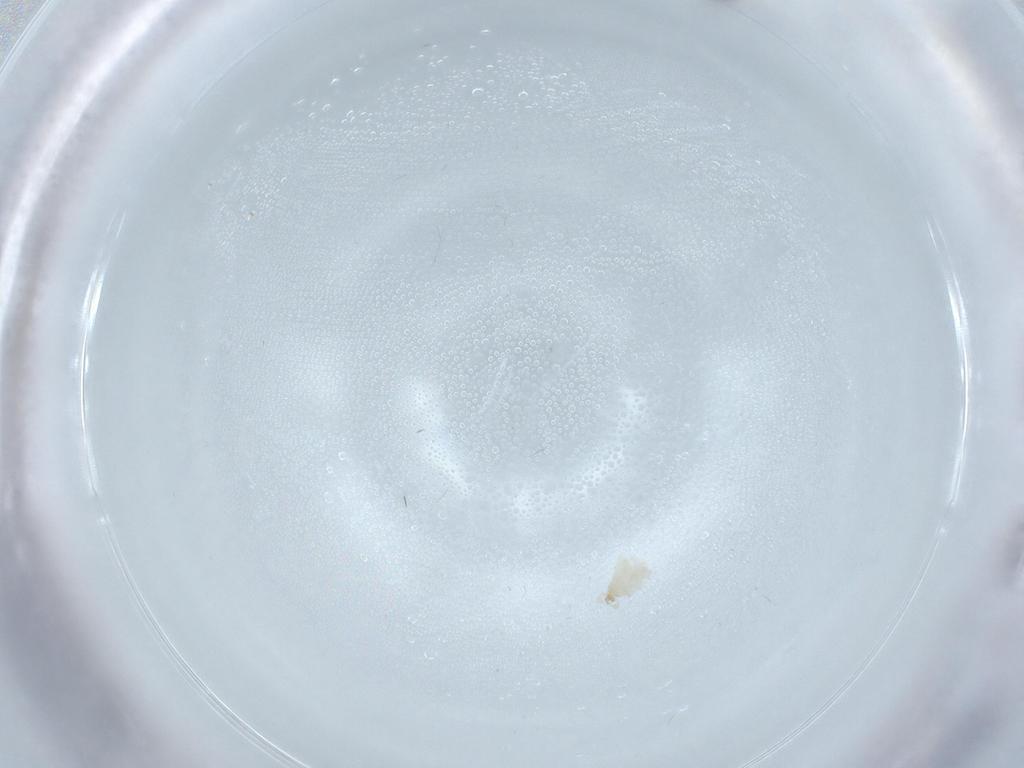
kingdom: Animalia
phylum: Arthropoda
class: Insecta
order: Diptera
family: Cecidomyiidae
